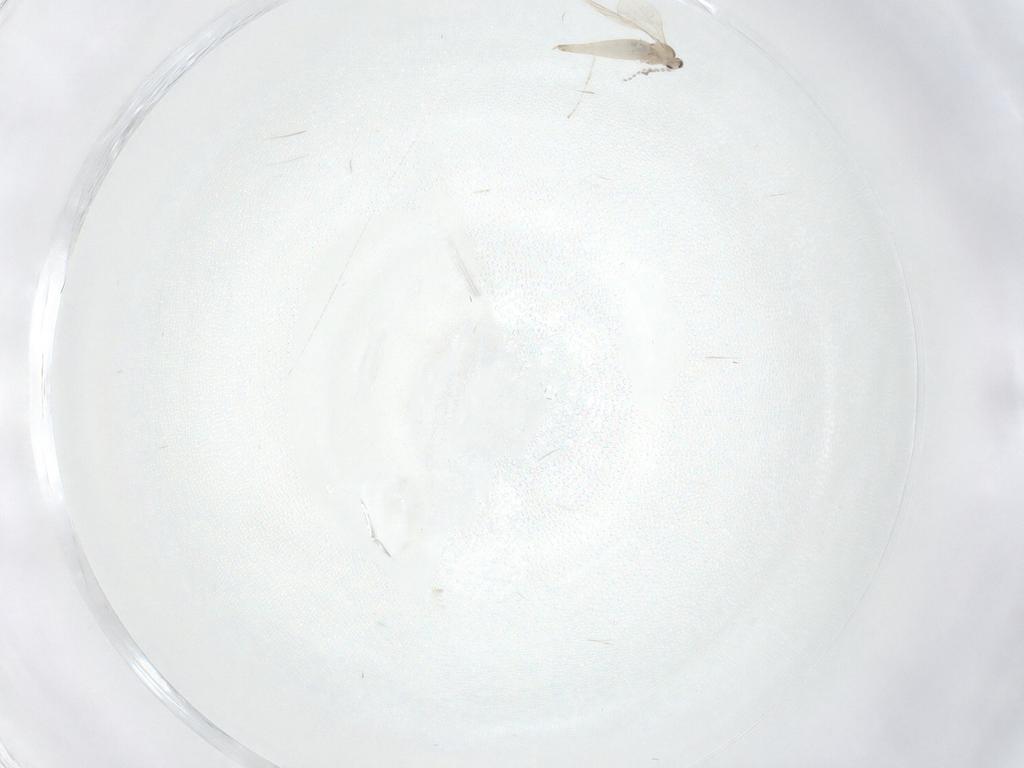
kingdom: Animalia
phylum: Arthropoda
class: Insecta
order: Diptera
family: Cecidomyiidae
